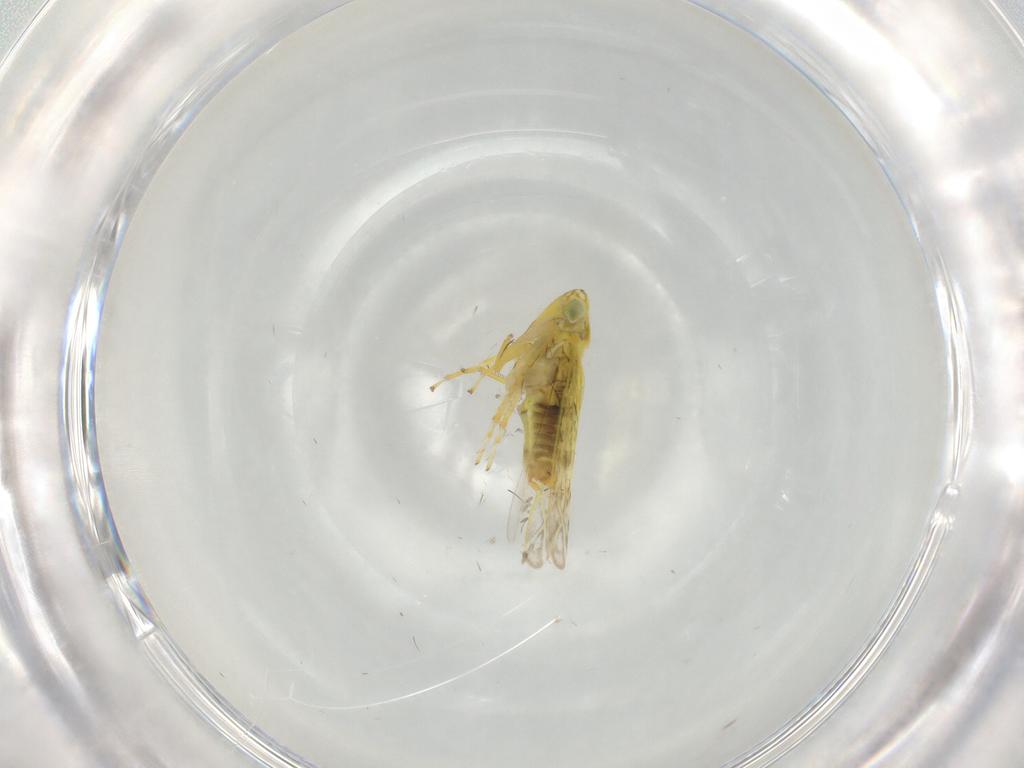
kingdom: Animalia
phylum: Arthropoda
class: Insecta
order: Hemiptera
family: Cicadellidae
